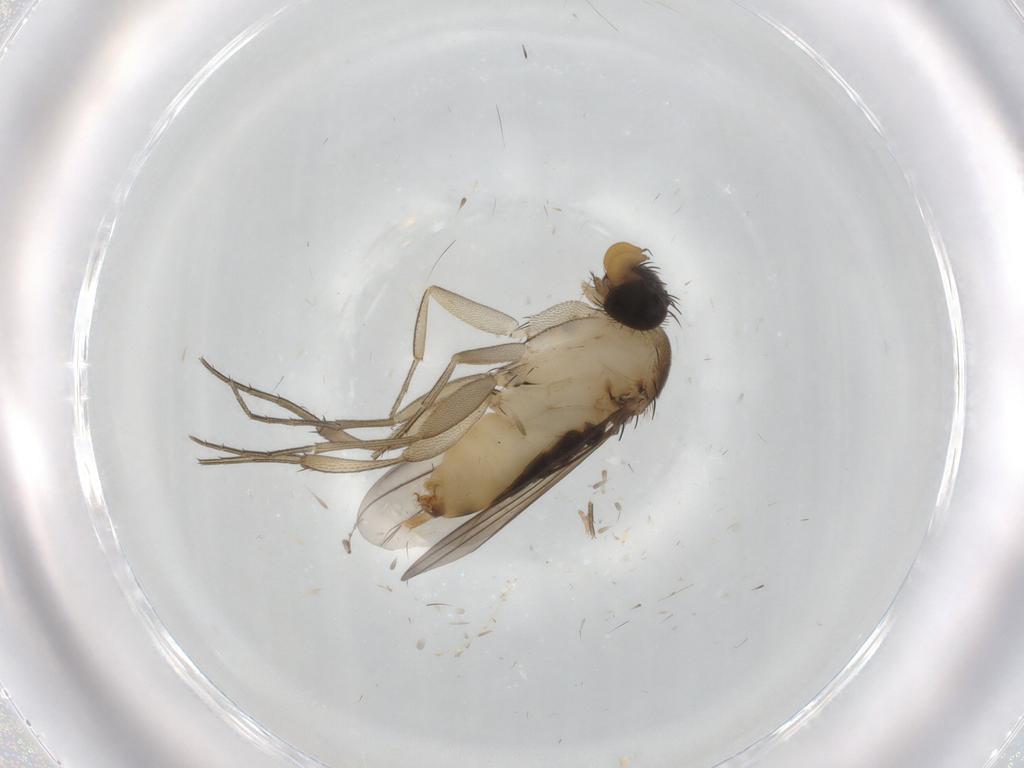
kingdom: Animalia
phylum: Arthropoda
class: Insecta
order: Diptera
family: Phoridae
